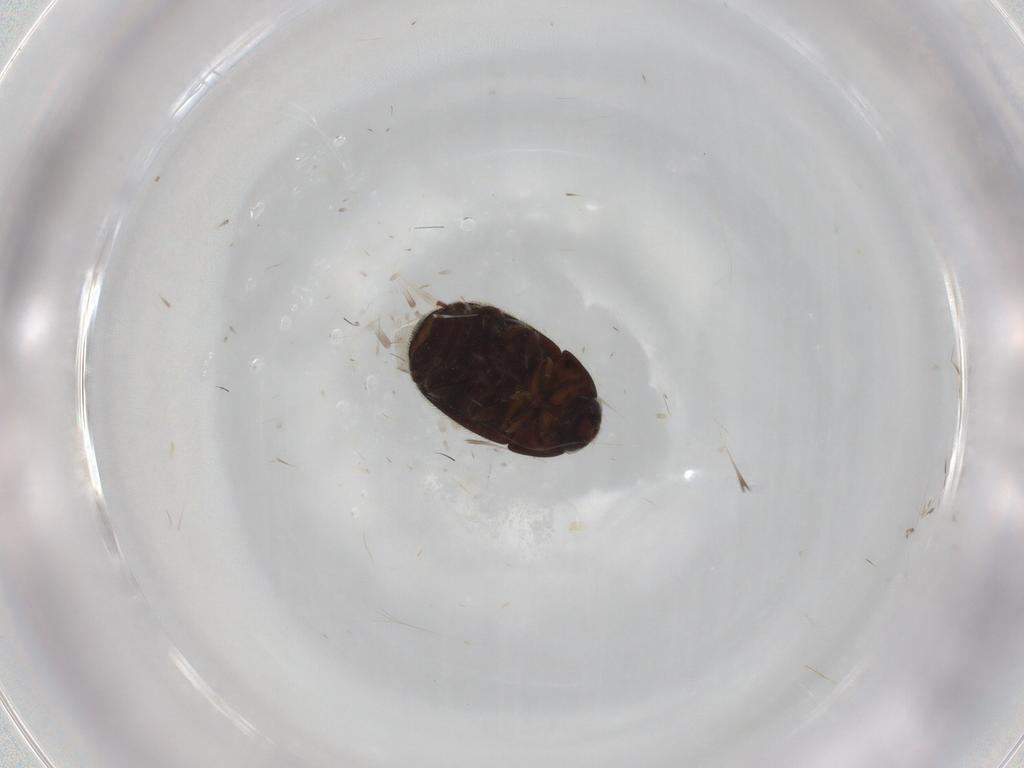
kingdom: Animalia
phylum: Arthropoda
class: Insecta
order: Coleoptera
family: Nitidulidae
